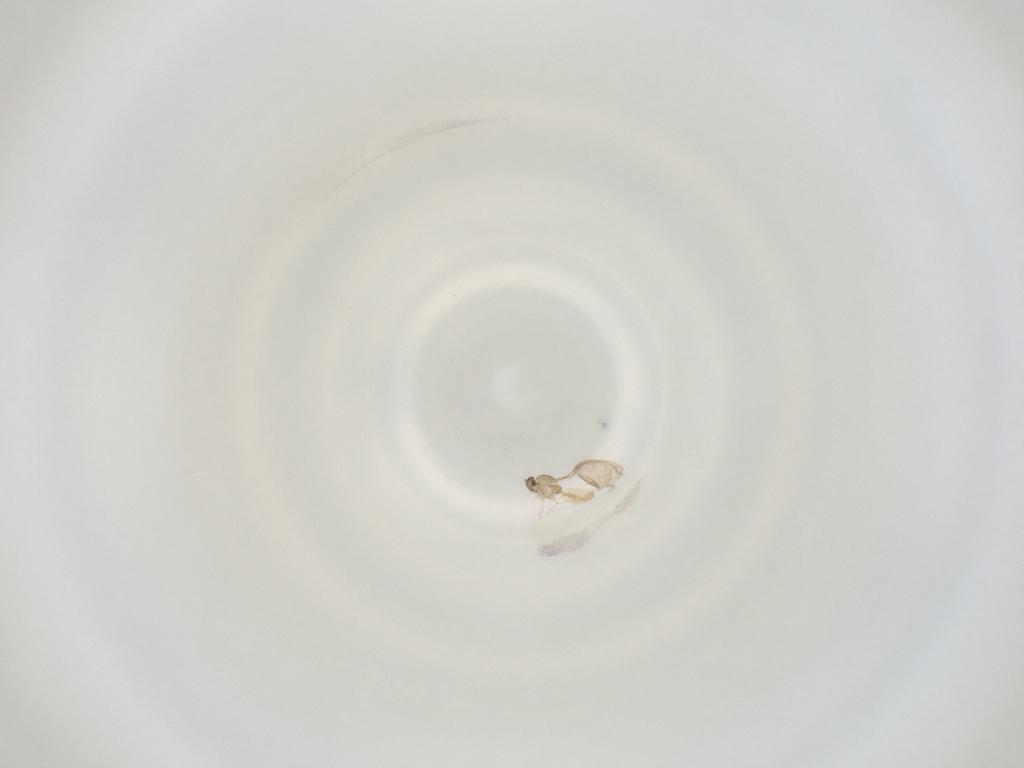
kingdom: Animalia
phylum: Arthropoda
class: Insecta
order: Diptera
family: Cecidomyiidae
